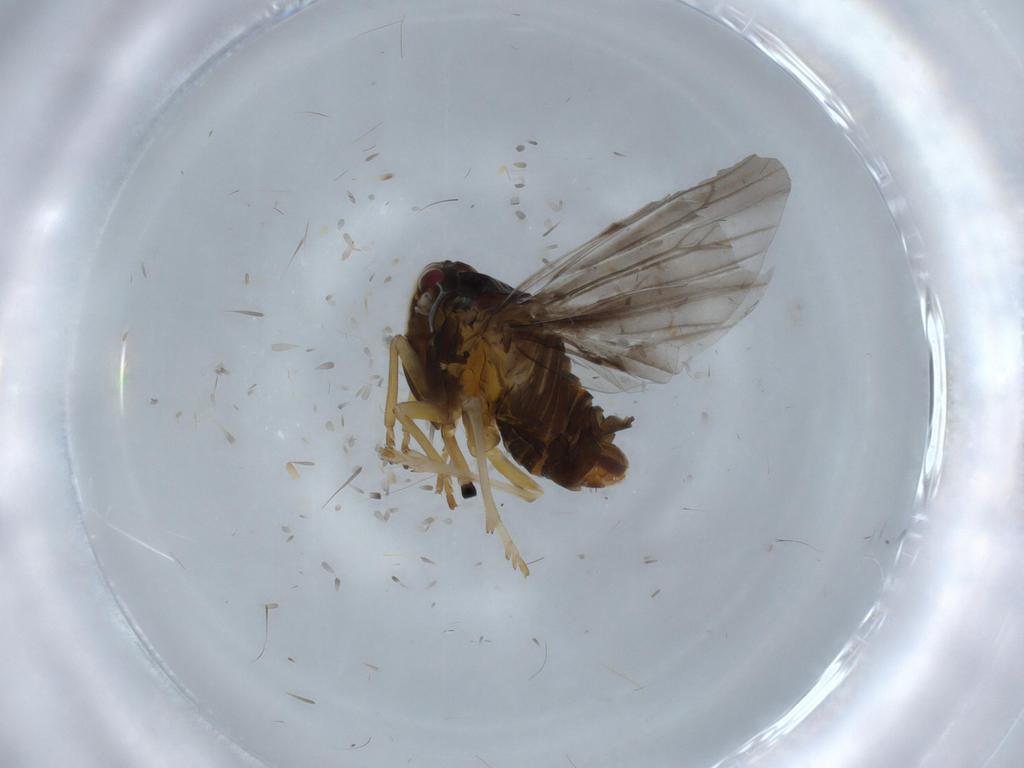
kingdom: Animalia
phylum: Arthropoda
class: Insecta
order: Hemiptera
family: Derbidae
